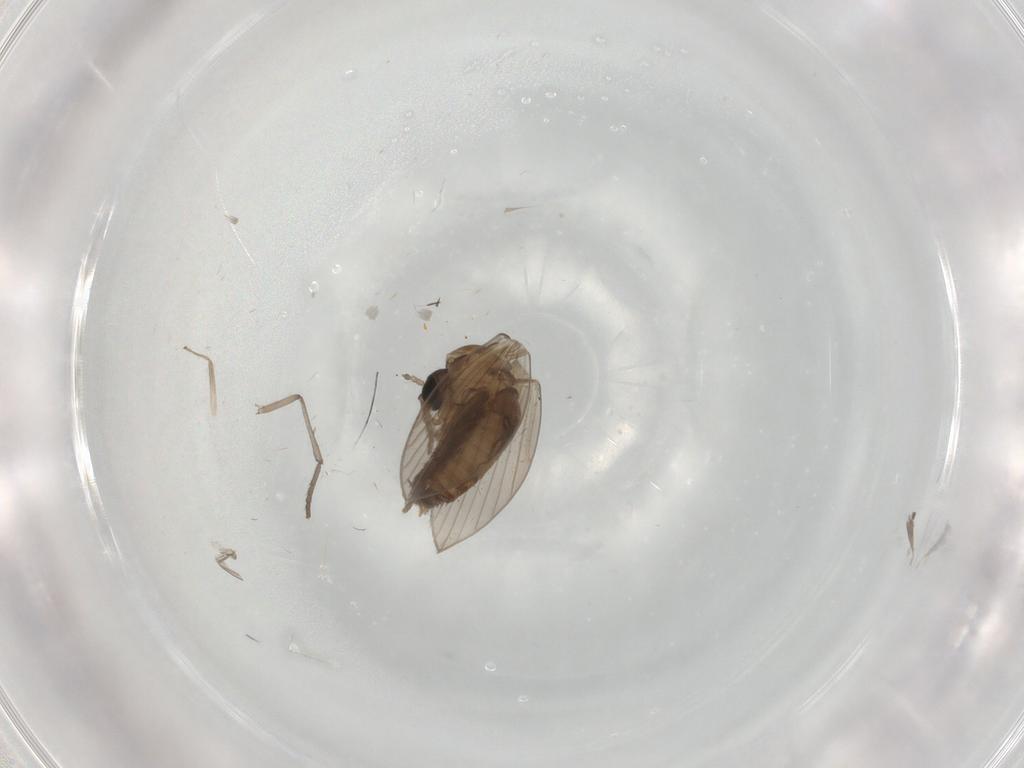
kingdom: Animalia
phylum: Arthropoda
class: Insecta
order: Diptera
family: Psychodidae
